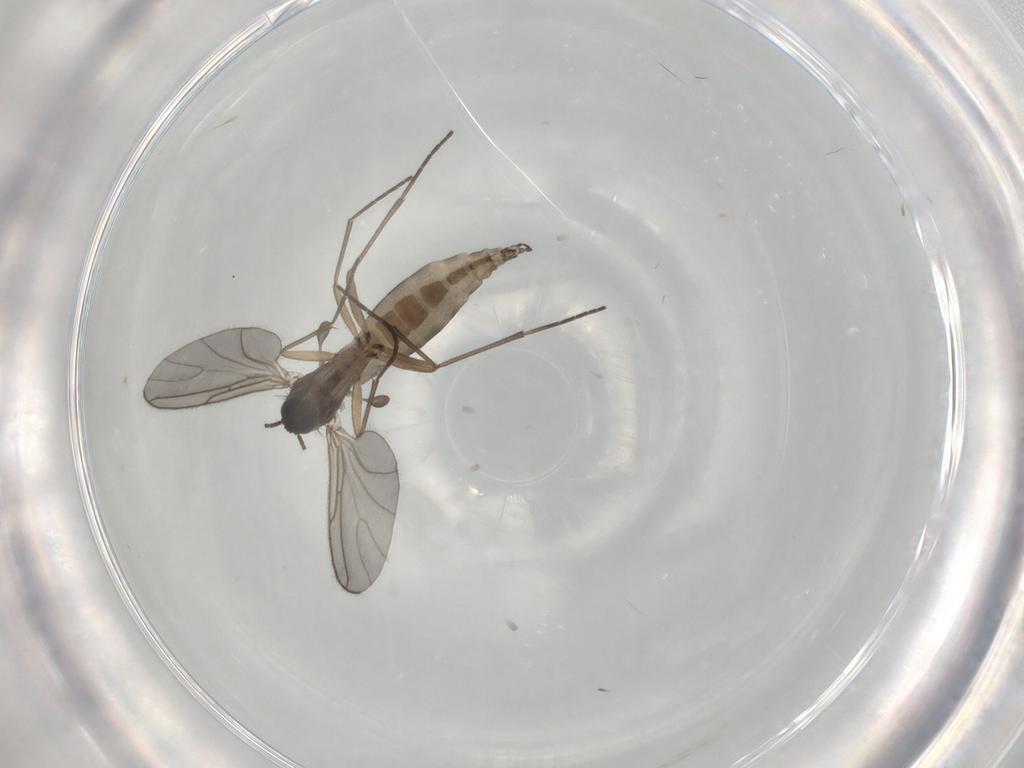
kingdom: Animalia
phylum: Arthropoda
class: Insecta
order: Diptera
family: Sciaridae
